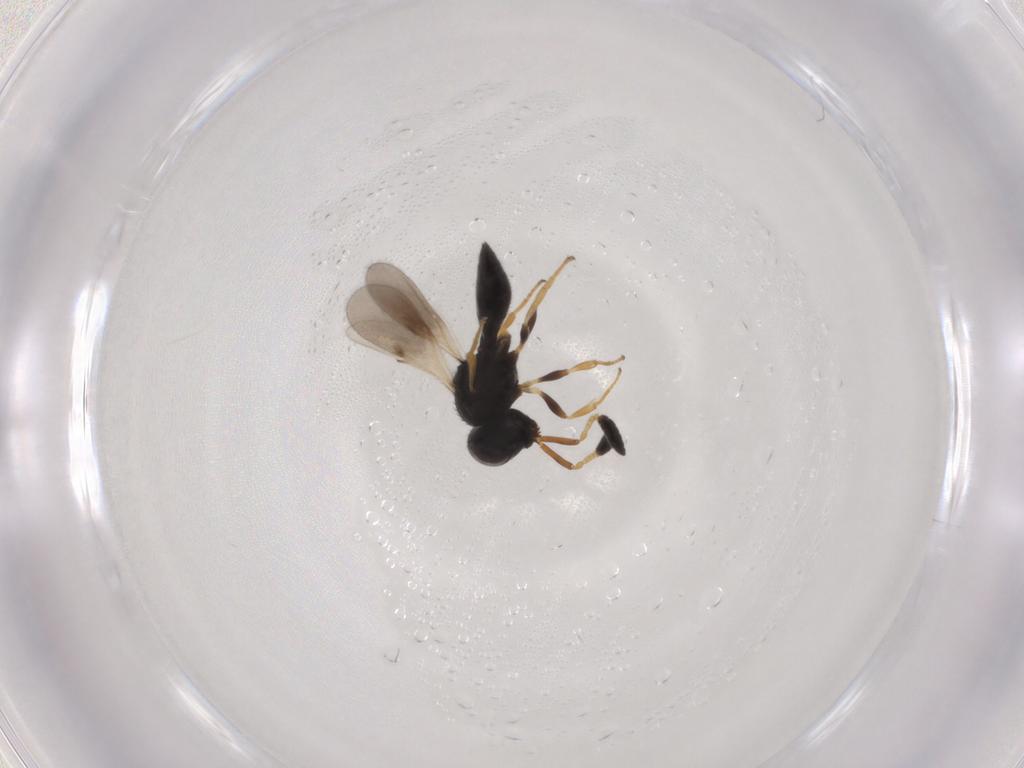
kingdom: Animalia
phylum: Arthropoda
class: Insecta
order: Hymenoptera
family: Scelionidae
